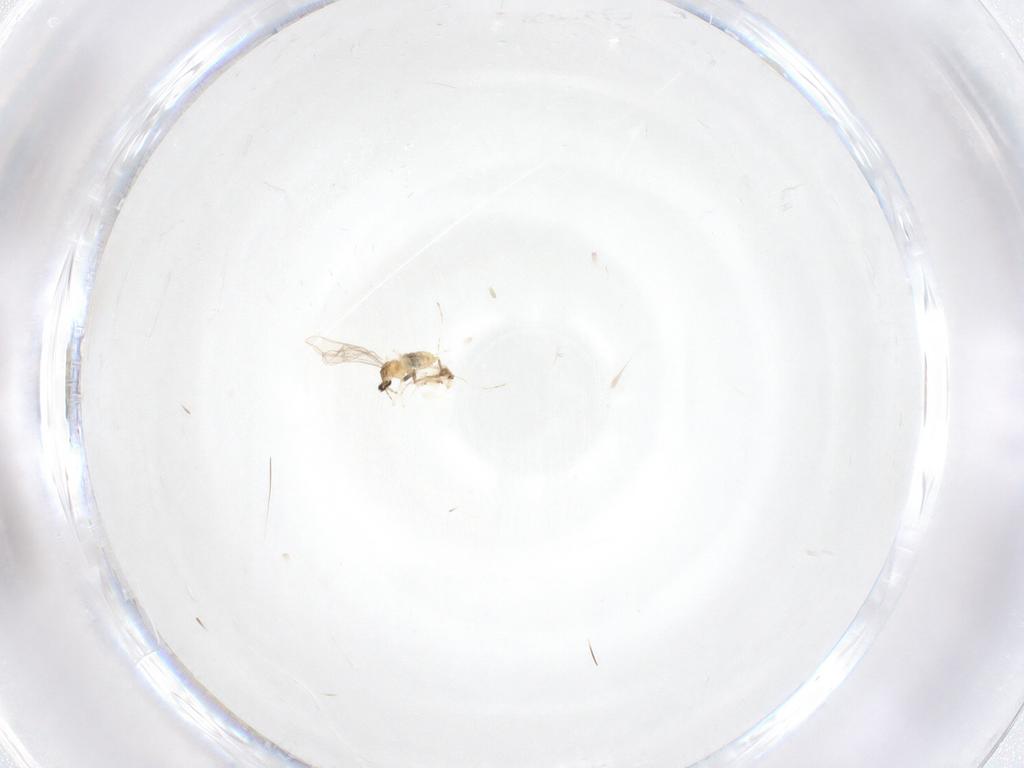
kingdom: Animalia
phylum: Arthropoda
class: Insecta
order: Diptera
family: Cecidomyiidae
